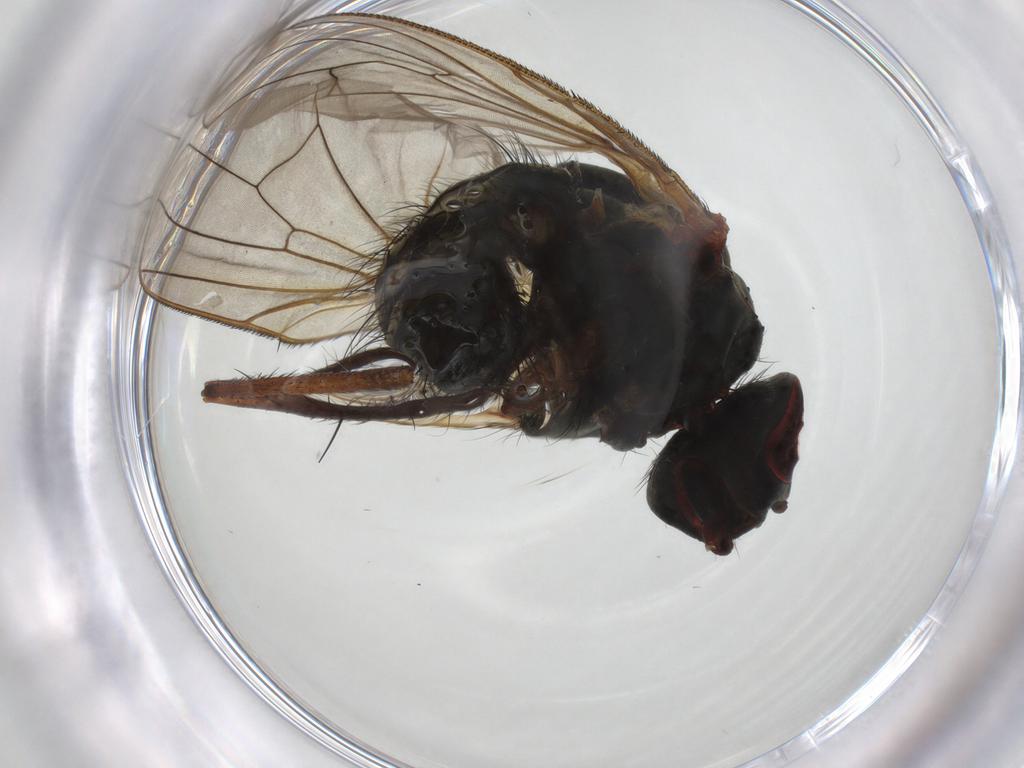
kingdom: Animalia
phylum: Arthropoda
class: Insecta
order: Diptera
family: Anthomyiidae
